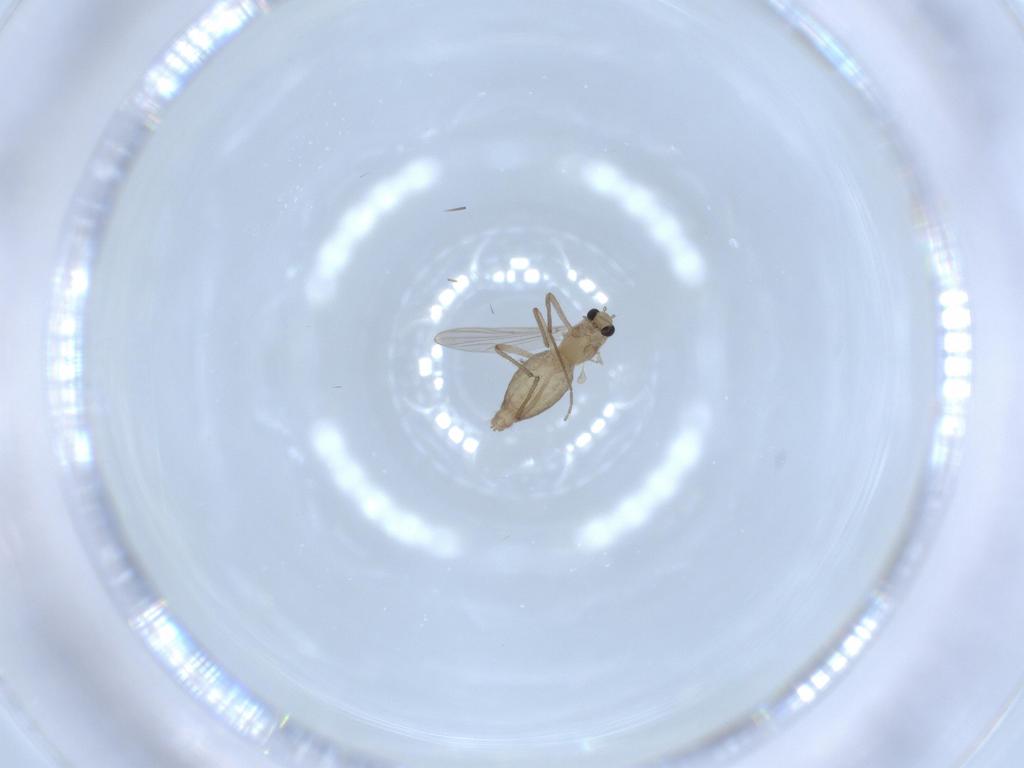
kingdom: Animalia
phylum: Arthropoda
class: Insecta
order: Diptera
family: Chironomidae
